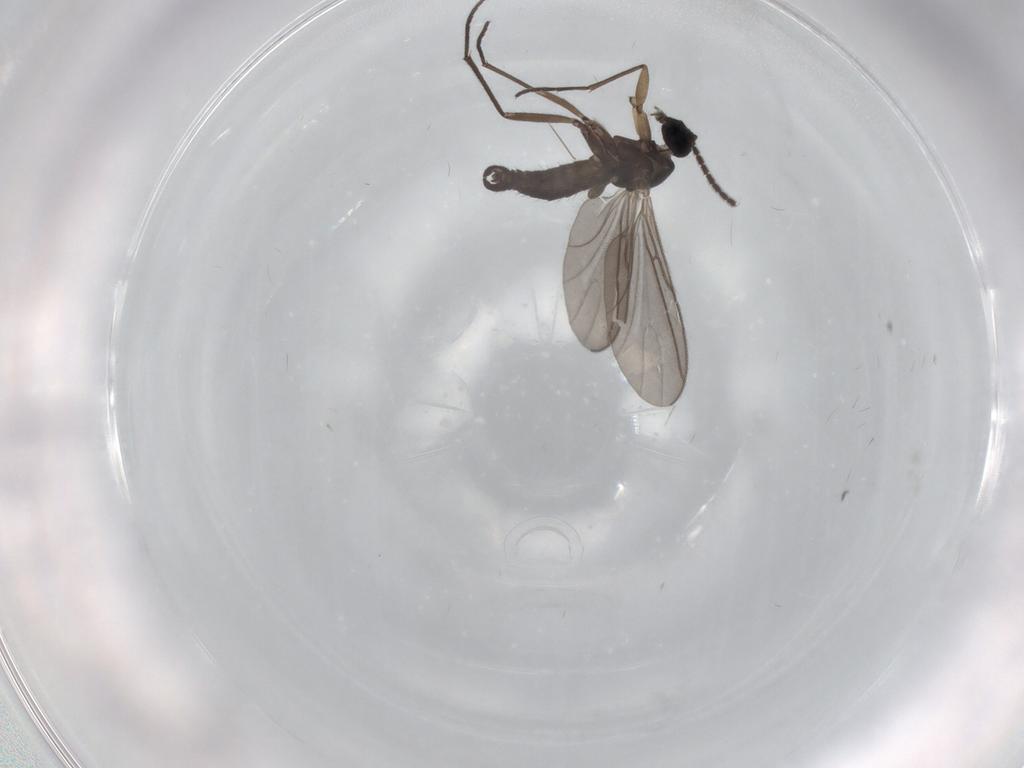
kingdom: Animalia
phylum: Arthropoda
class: Insecta
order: Diptera
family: Sciaridae
